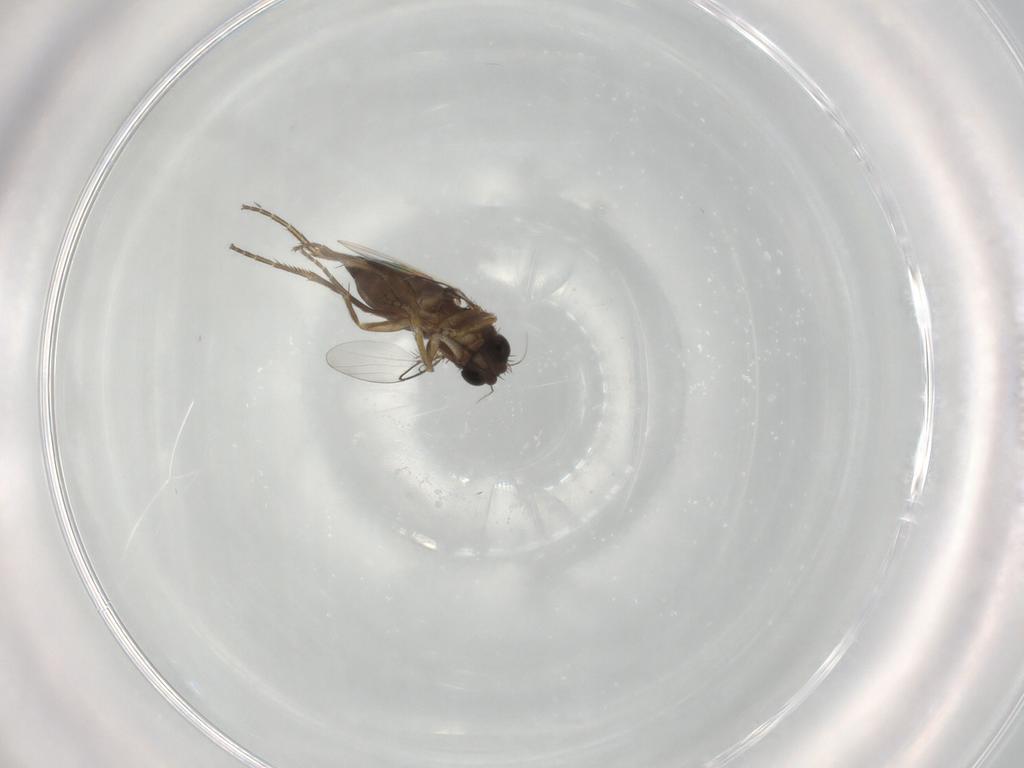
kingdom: Animalia
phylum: Arthropoda
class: Insecta
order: Diptera
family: Phoridae
